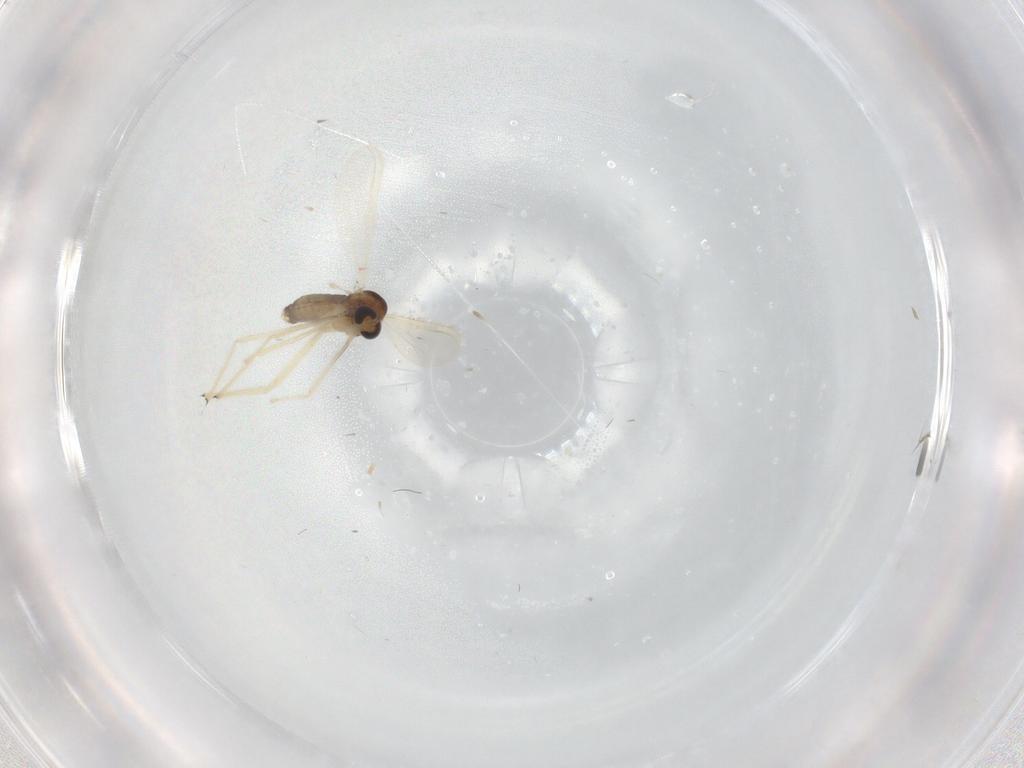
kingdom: Animalia
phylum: Arthropoda
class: Insecta
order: Diptera
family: Chironomidae
